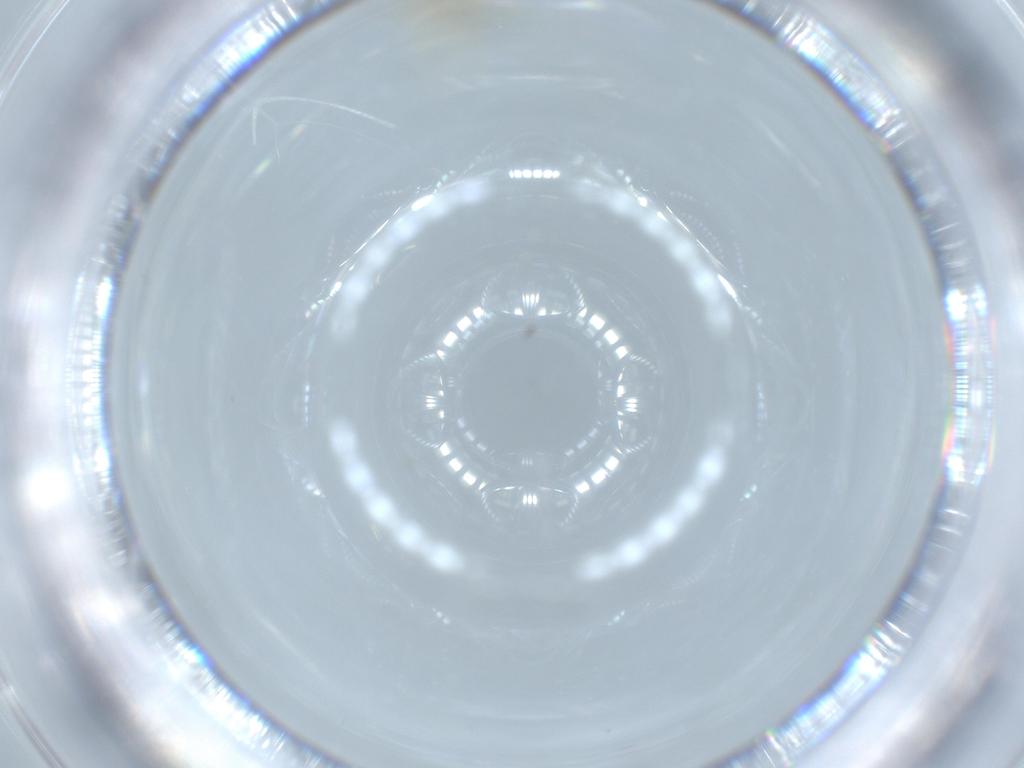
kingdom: Animalia
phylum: Arthropoda
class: Insecta
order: Diptera
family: Chironomidae
